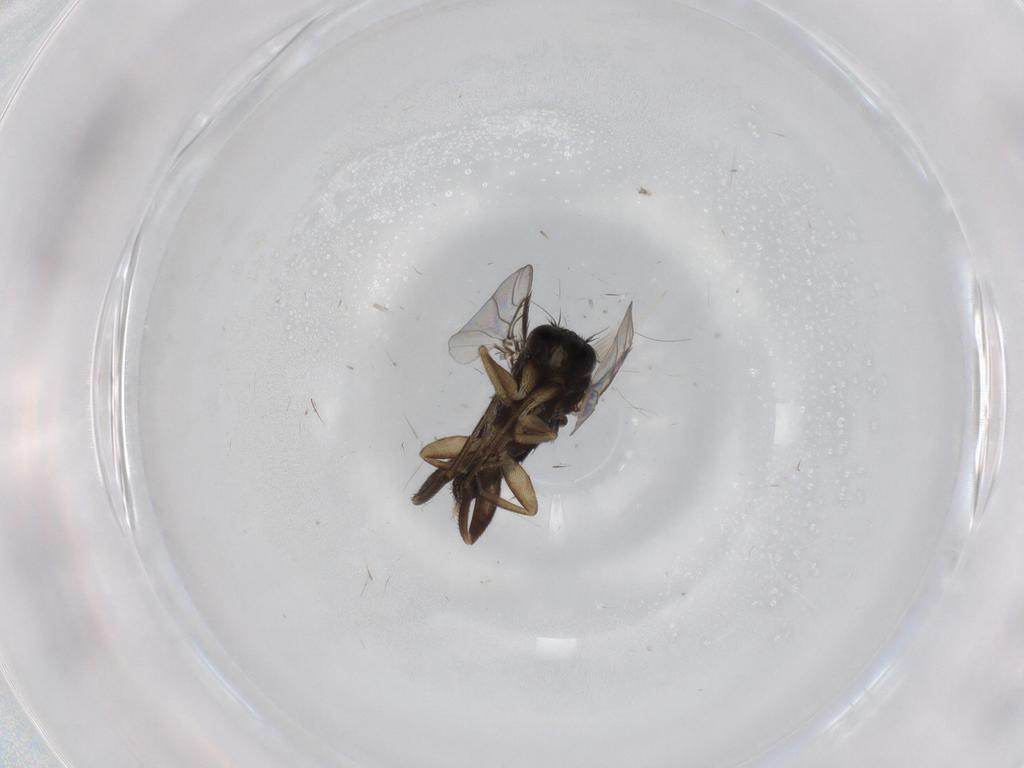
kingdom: Animalia
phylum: Arthropoda
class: Insecta
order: Diptera
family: Phoridae
